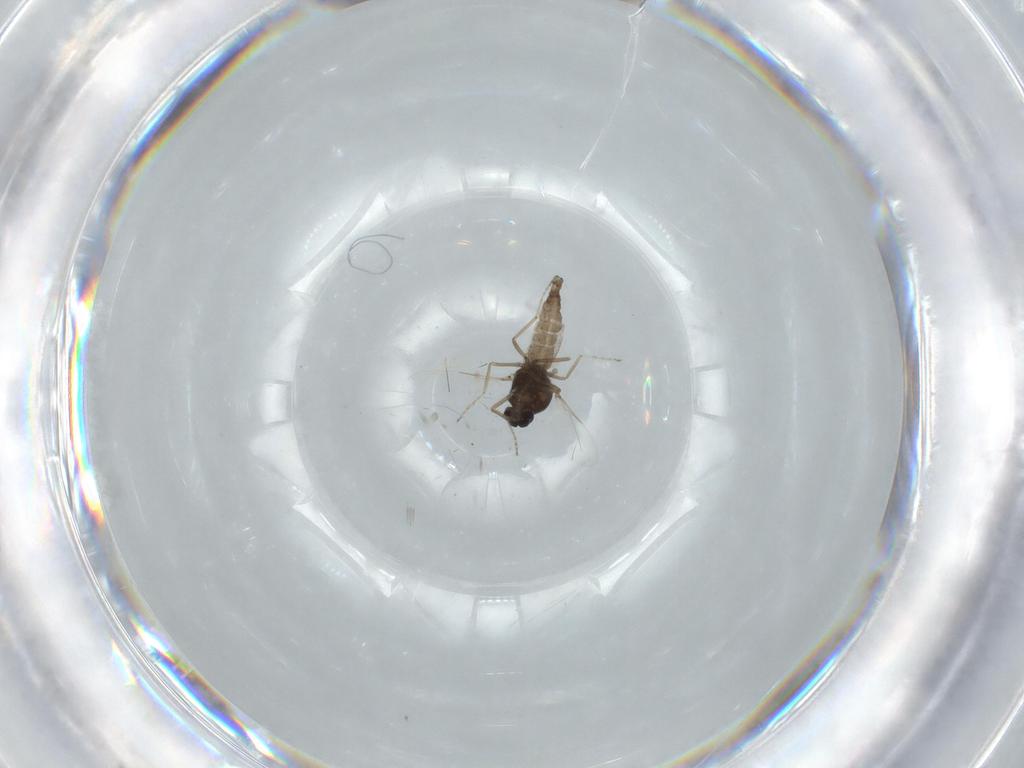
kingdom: Animalia
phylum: Arthropoda
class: Insecta
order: Diptera
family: Ceratopogonidae
